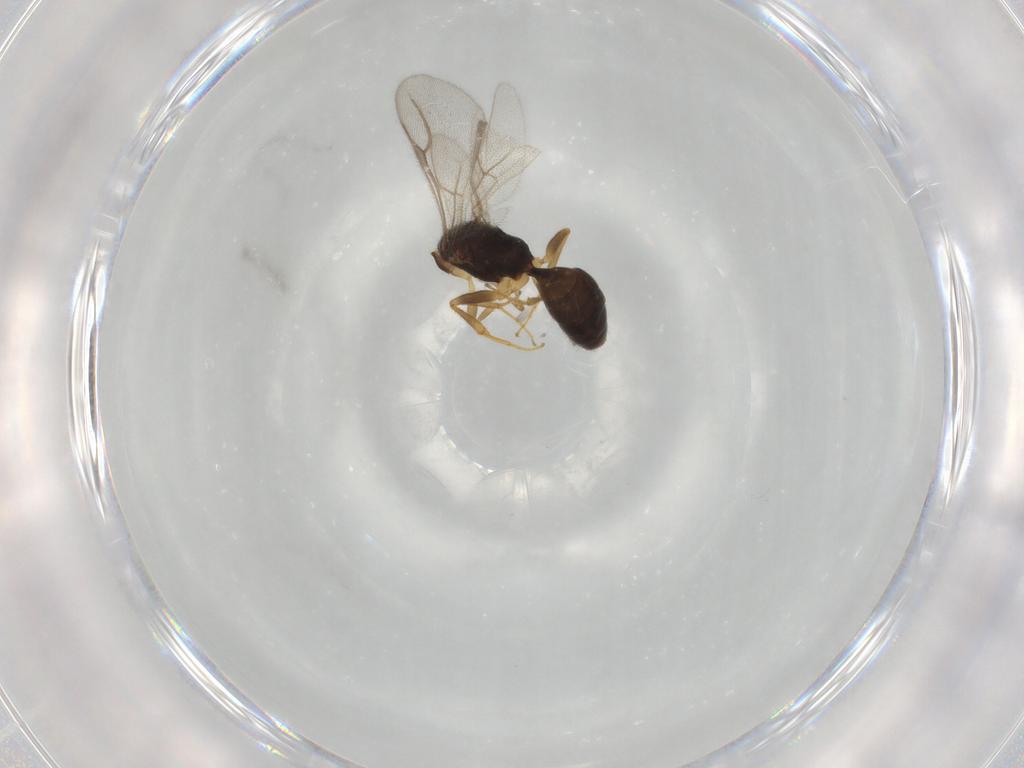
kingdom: Animalia
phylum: Arthropoda
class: Insecta
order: Hymenoptera
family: Bethylidae
